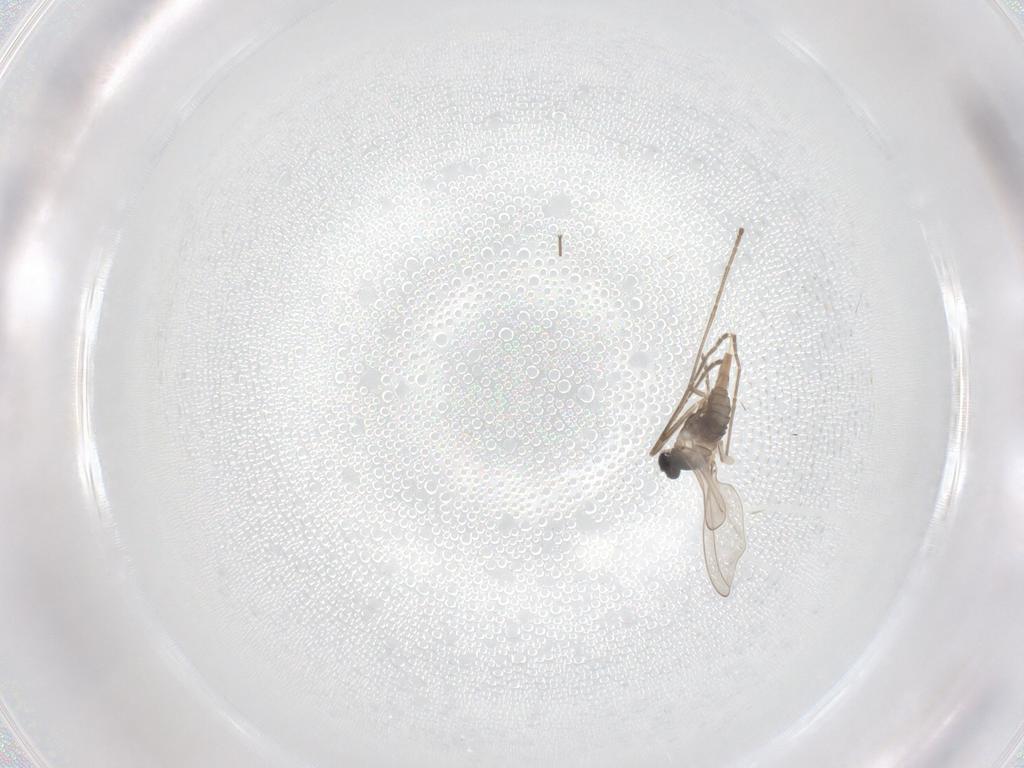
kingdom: Animalia
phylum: Arthropoda
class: Insecta
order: Diptera
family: Cecidomyiidae
